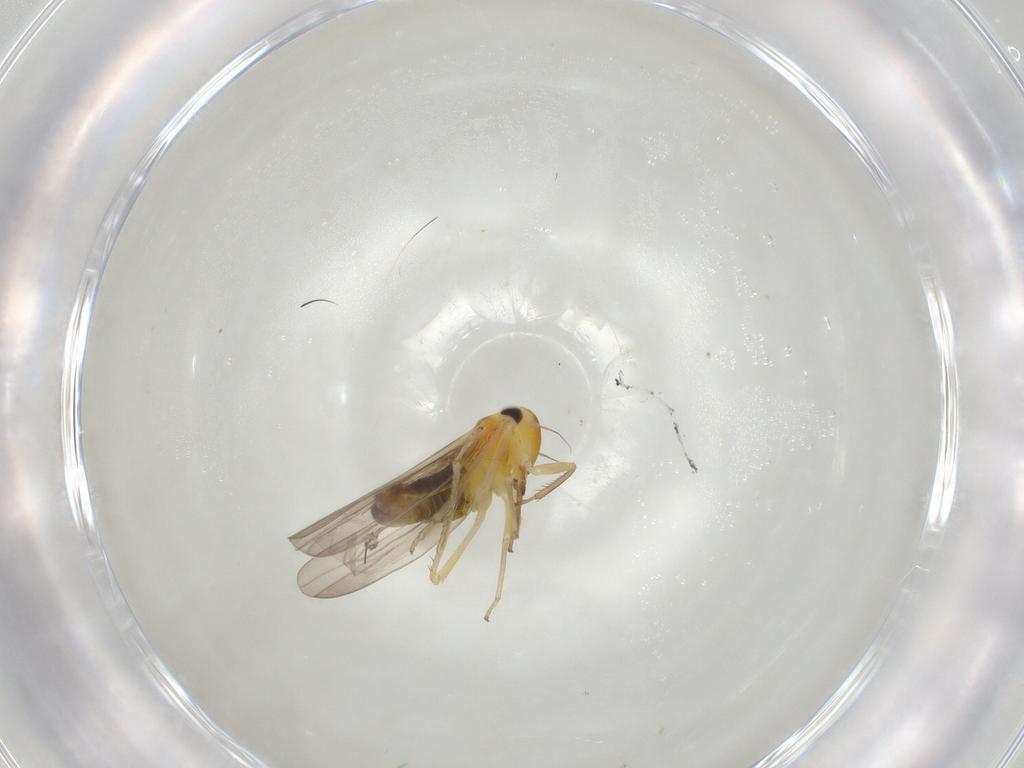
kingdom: Animalia
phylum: Arthropoda
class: Insecta
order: Hemiptera
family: Cicadellidae
